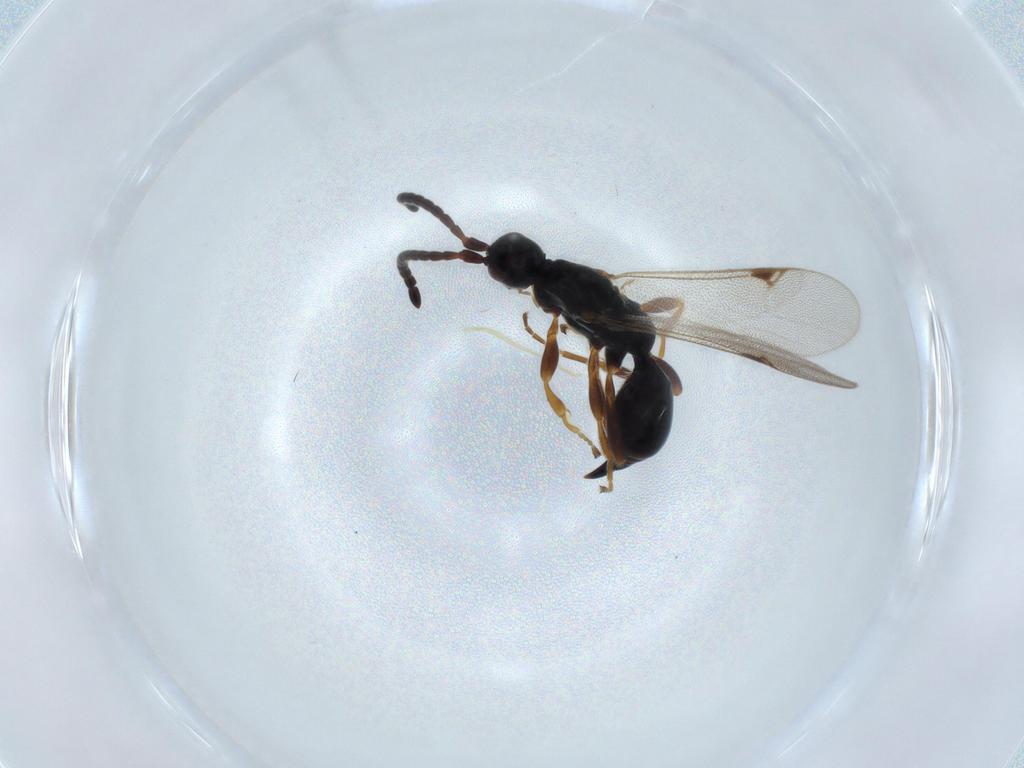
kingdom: Animalia
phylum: Arthropoda
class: Insecta
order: Hymenoptera
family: Proctotrupidae
